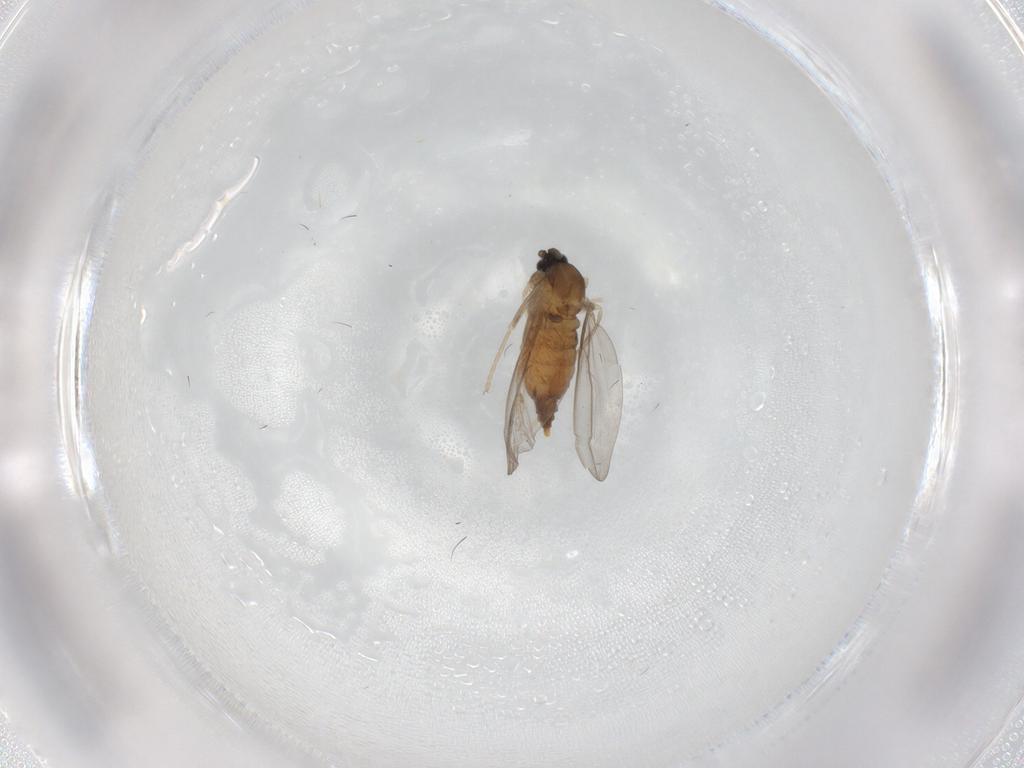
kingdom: Animalia
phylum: Arthropoda
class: Insecta
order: Diptera
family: Cecidomyiidae
